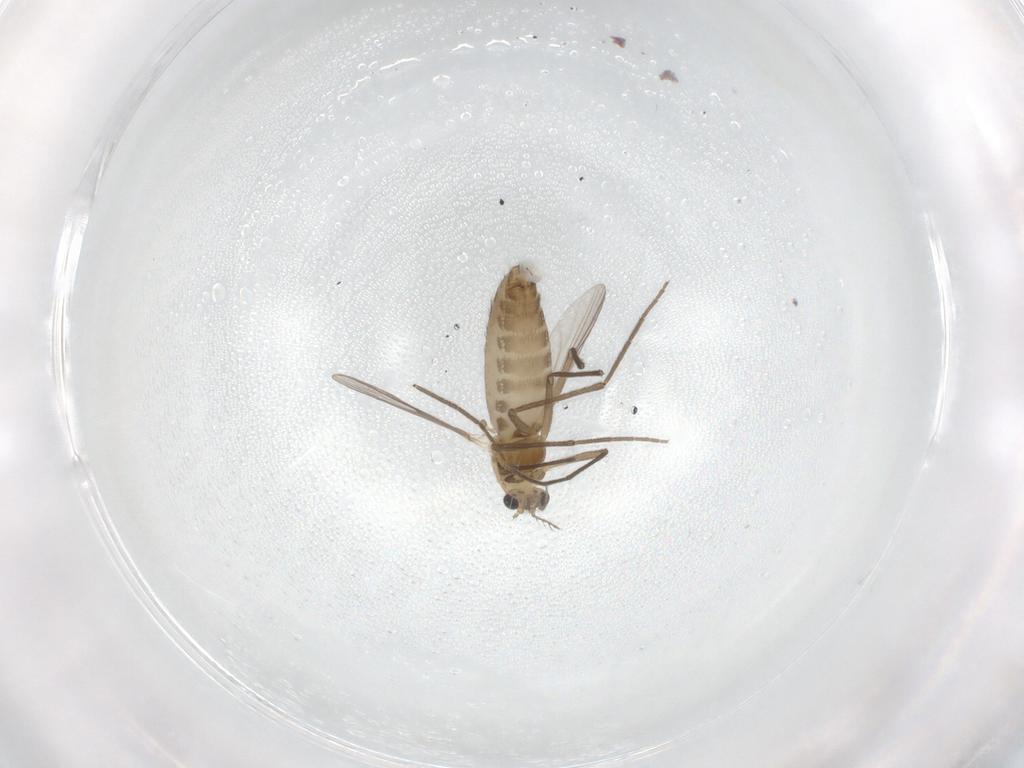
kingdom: Animalia
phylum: Arthropoda
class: Insecta
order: Diptera
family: Chironomidae
